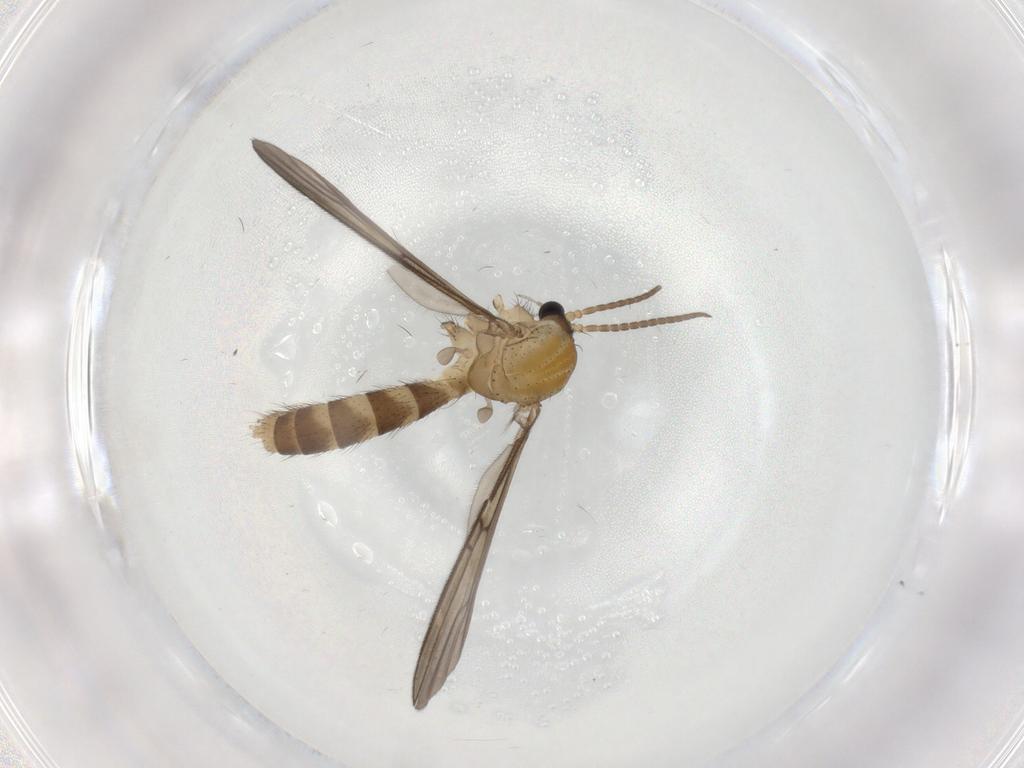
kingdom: Animalia
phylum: Arthropoda
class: Insecta
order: Diptera
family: Mycetophilidae
